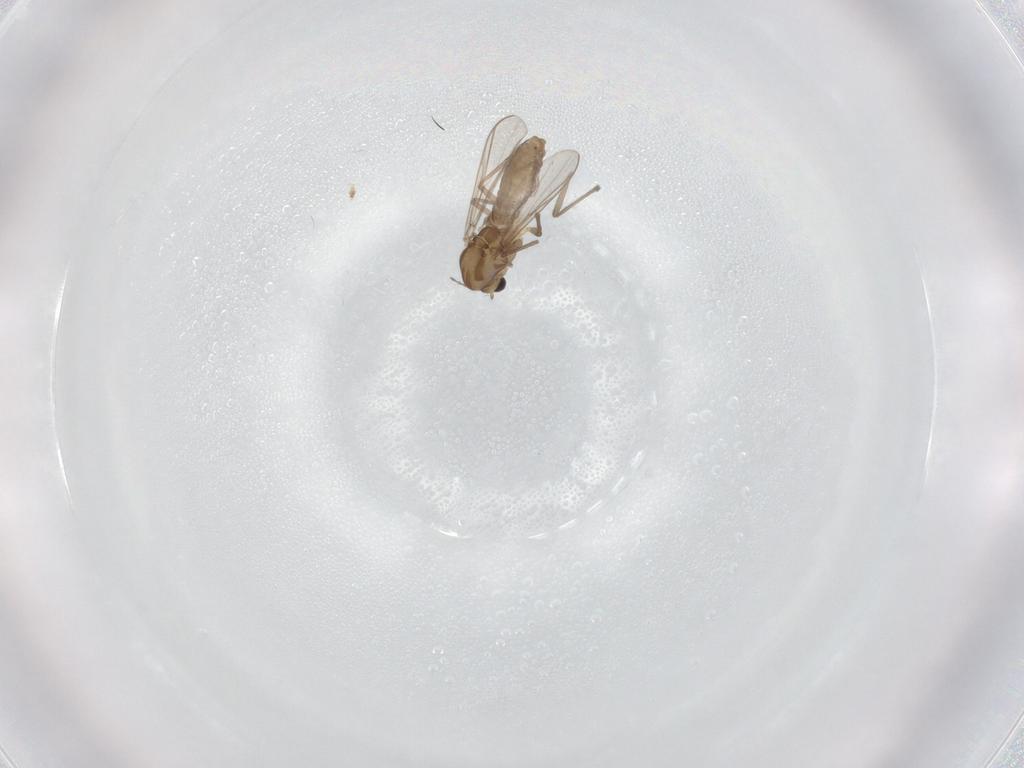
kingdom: Animalia
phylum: Arthropoda
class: Insecta
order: Diptera
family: Chironomidae
